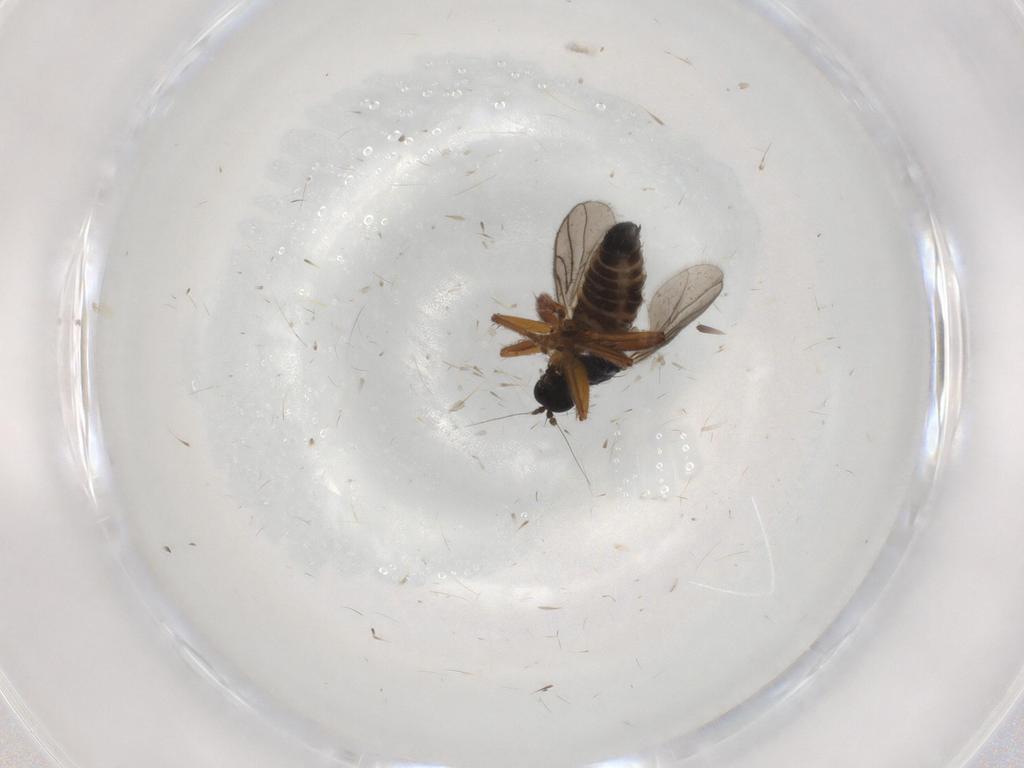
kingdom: Animalia
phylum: Arthropoda
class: Insecta
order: Diptera
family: Hybotidae
